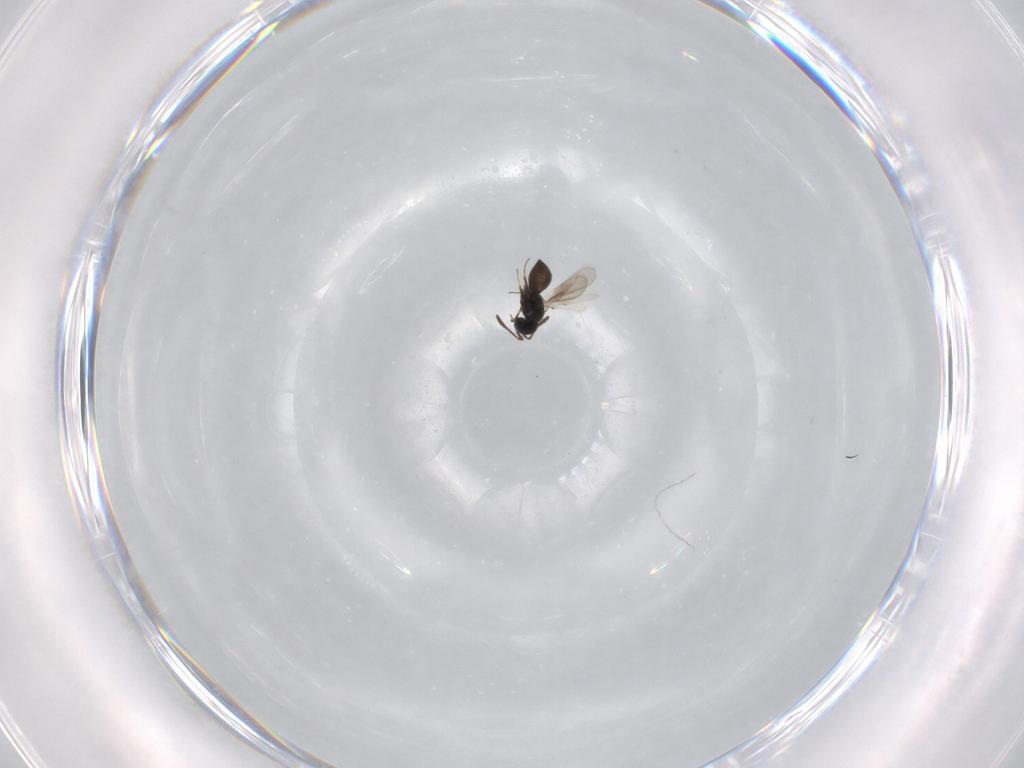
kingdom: Animalia
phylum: Arthropoda
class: Insecta
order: Hymenoptera
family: Scelionidae
